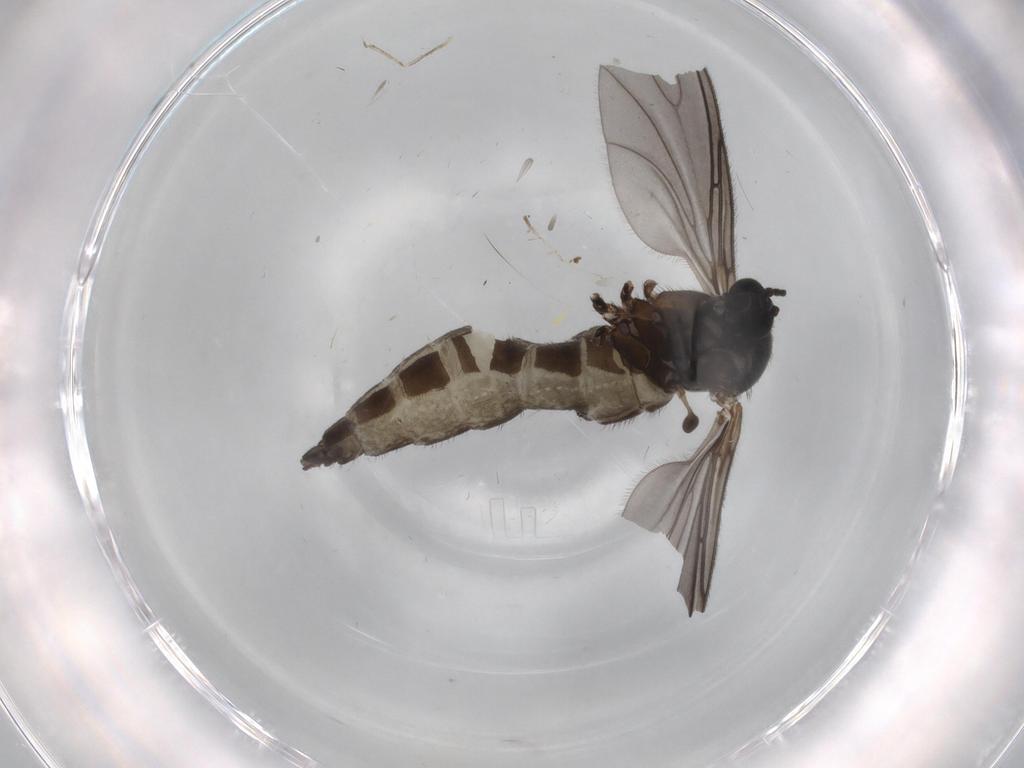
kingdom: Animalia
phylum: Arthropoda
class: Insecta
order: Diptera
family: Sciaridae
